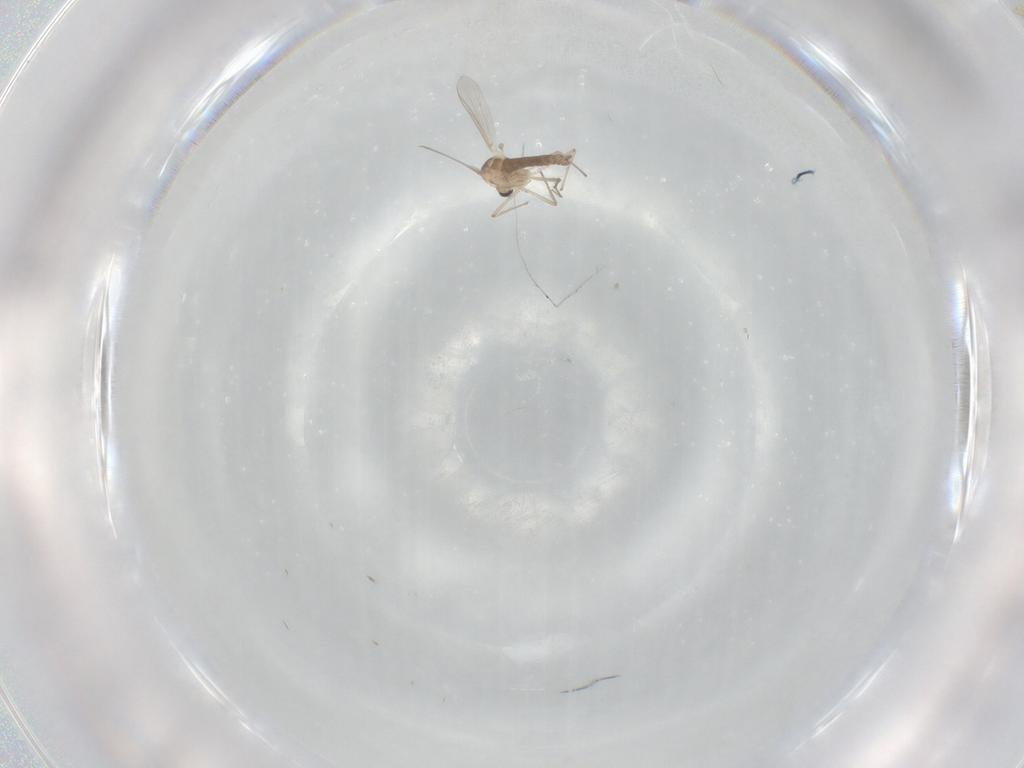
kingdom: Animalia
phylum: Arthropoda
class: Insecta
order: Diptera
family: Chironomidae
